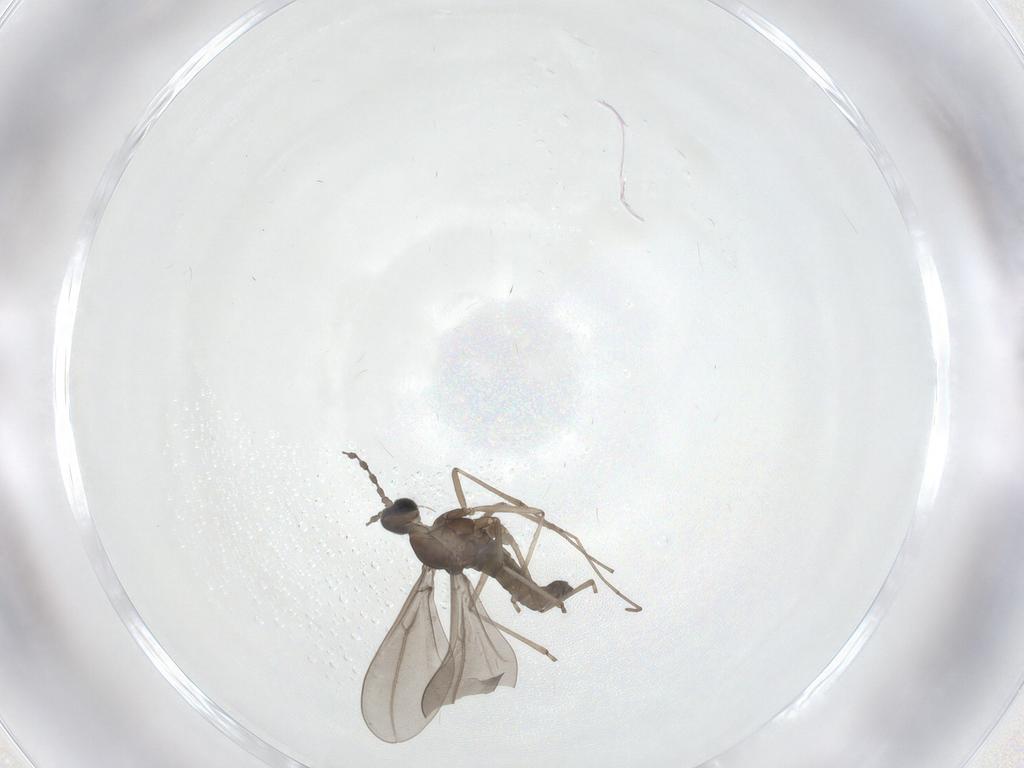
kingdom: Animalia
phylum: Arthropoda
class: Insecta
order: Diptera
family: Cecidomyiidae
